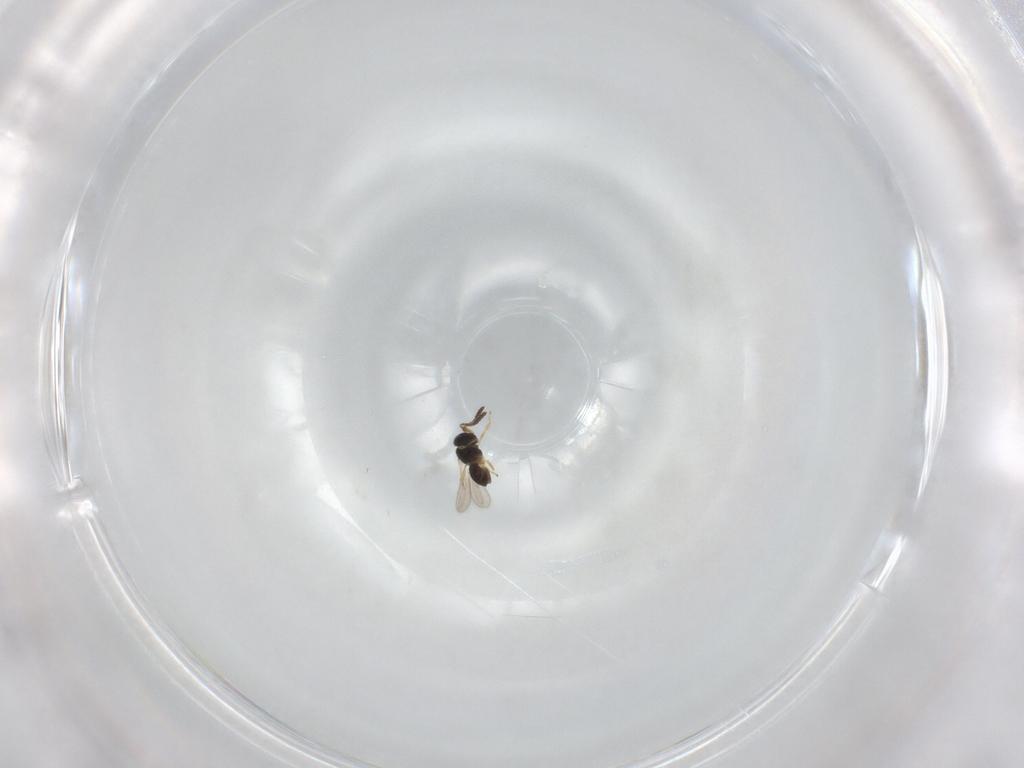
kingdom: Animalia
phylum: Arthropoda
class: Insecta
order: Hymenoptera
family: Scelionidae
